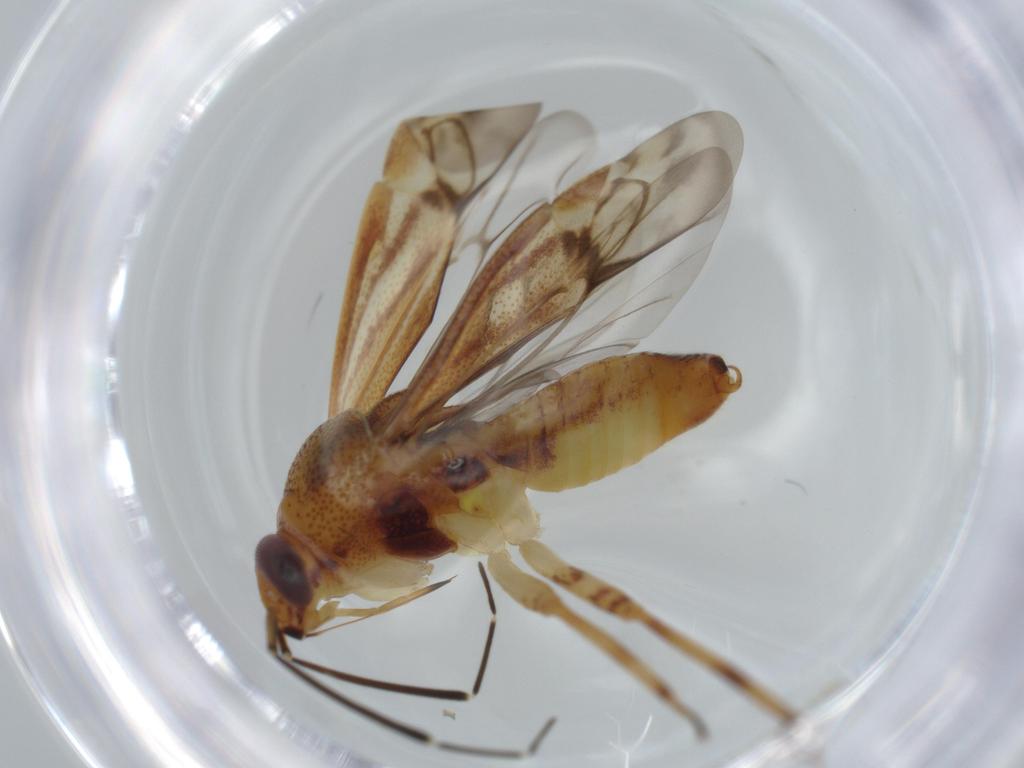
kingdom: Animalia
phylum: Arthropoda
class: Insecta
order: Hemiptera
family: Miridae
